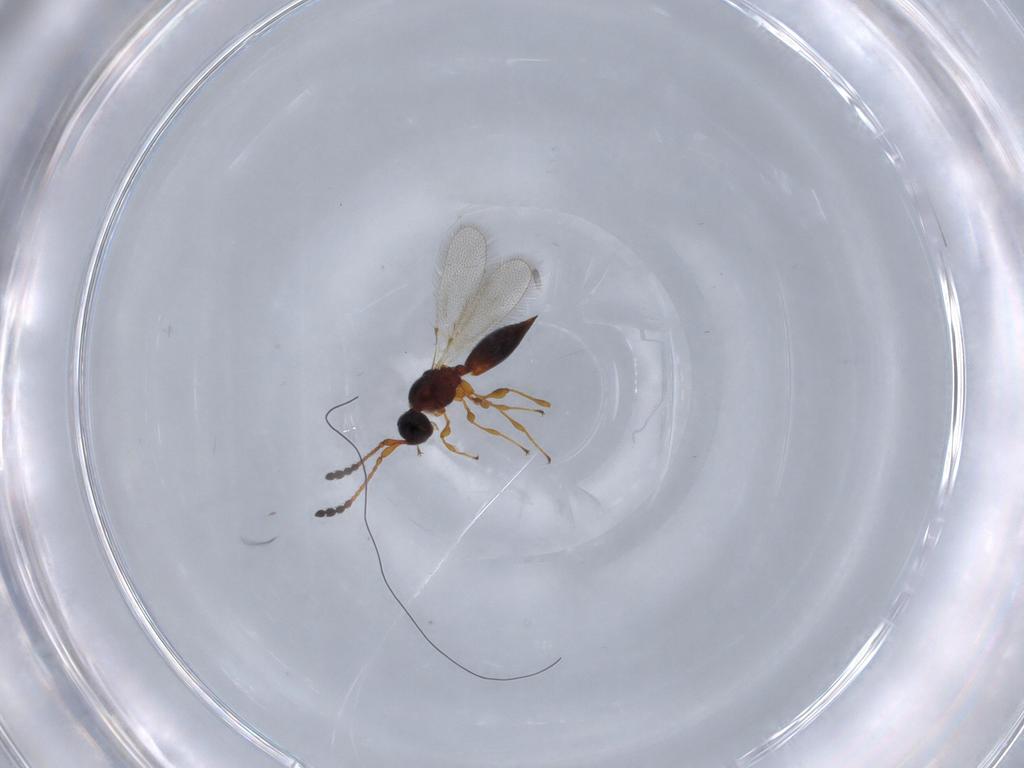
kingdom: Animalia
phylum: Arthropoda
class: Insecta
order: Hymenoptera
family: Diapriidae
